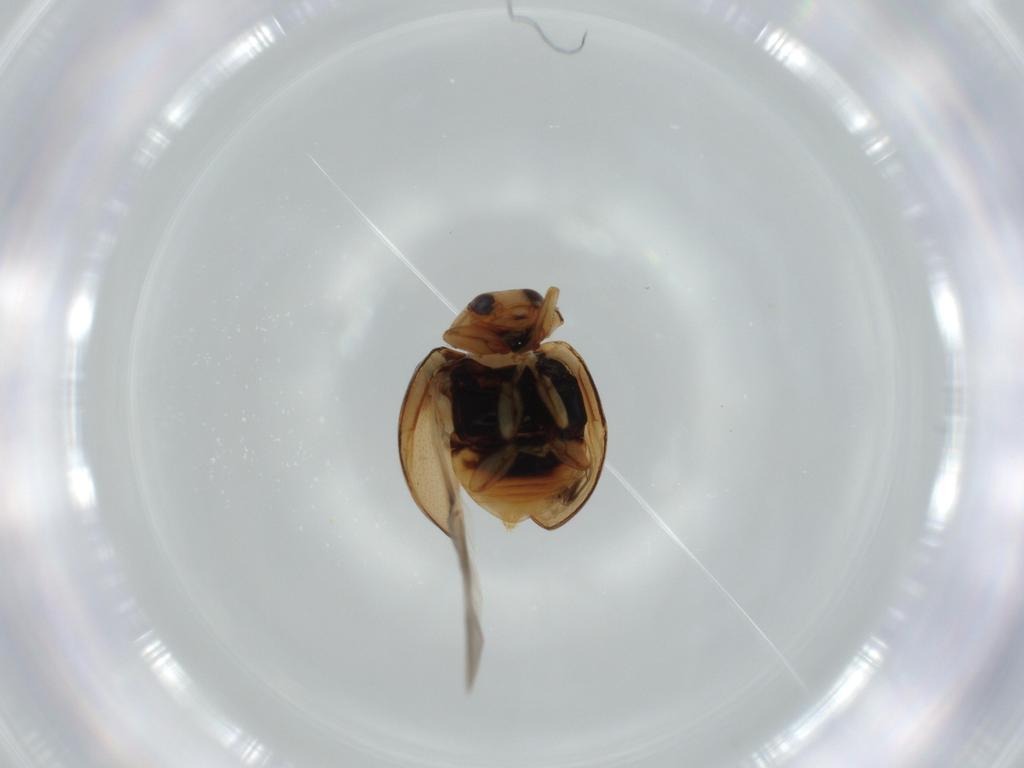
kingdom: Animalia
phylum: Arthropoda
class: Insecta
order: Coleoptera
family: Coccinellidae
